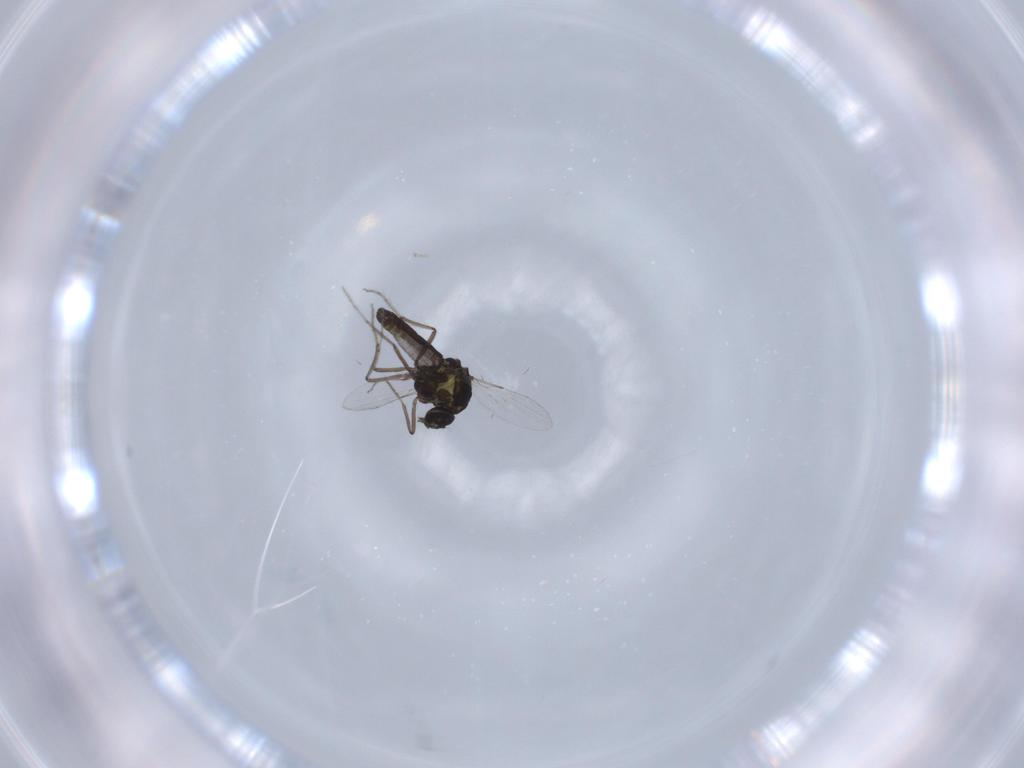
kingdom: Animalia
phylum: Arthropoda
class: Insecta
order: Diptera
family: Ceratopogonidae
